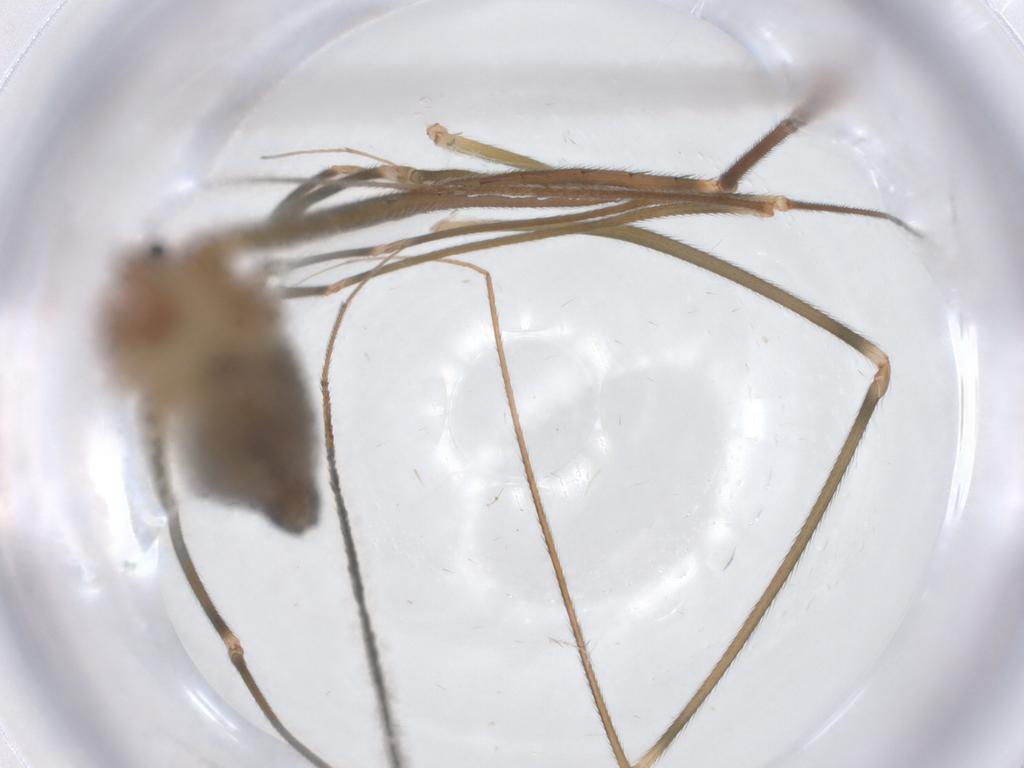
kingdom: Animalia
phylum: Arthropoda
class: Arachnida
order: Araneae
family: Pholcidae
